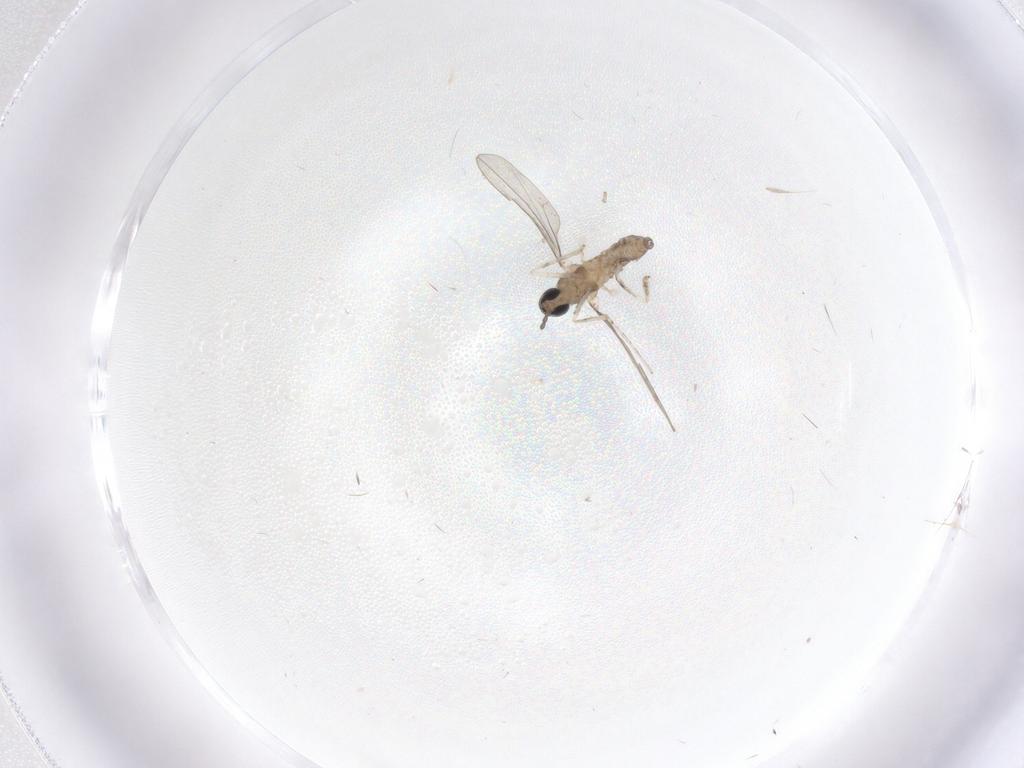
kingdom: Animalia
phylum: Arthropoda
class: Insecta
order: Diptera
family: Cecidomyiidae
